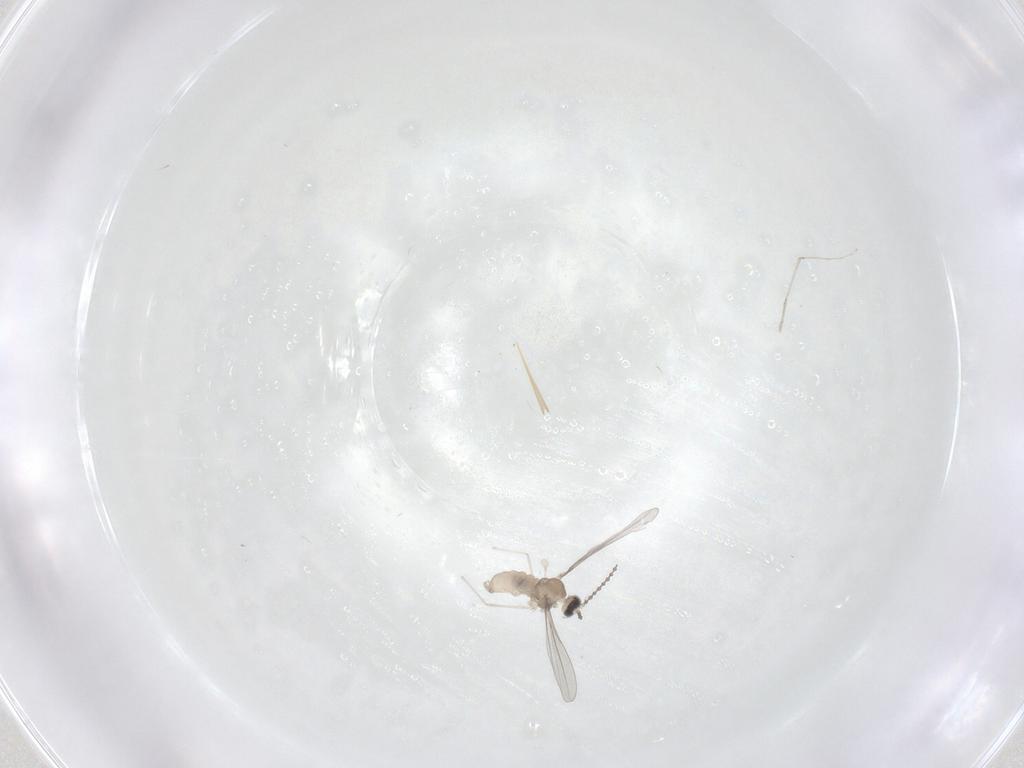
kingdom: Animalia
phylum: Arthropoda
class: Insecta
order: Diptera
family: Cecidomyiidae
